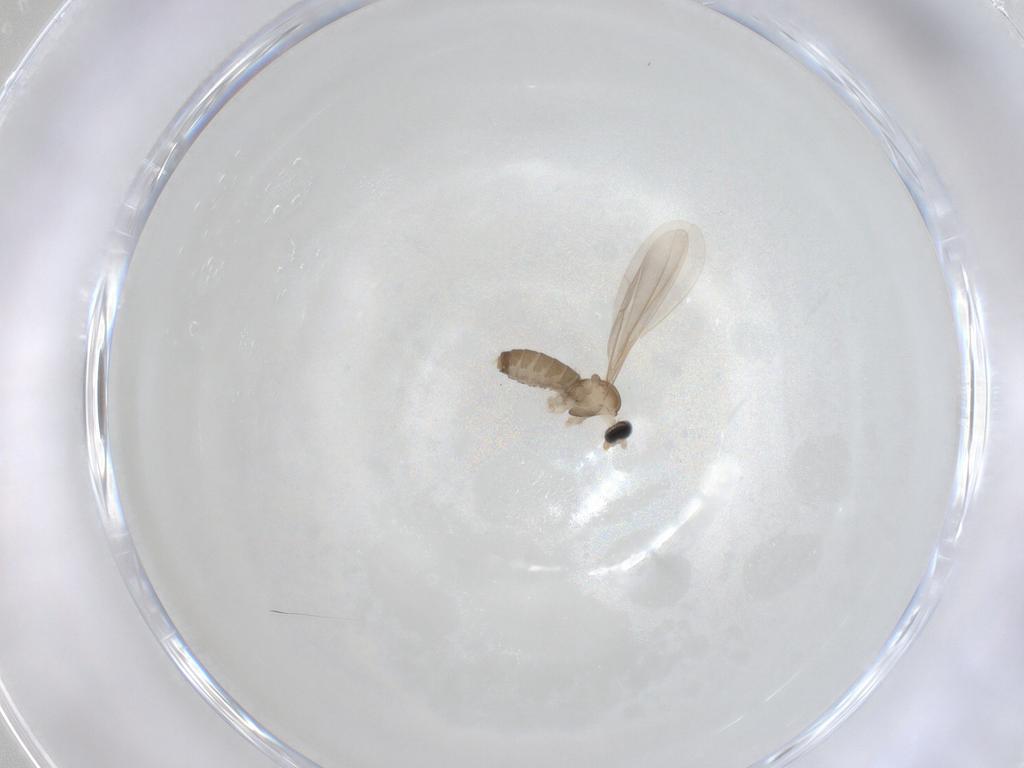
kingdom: Animalia
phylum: Arthropoda
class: Insecta
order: Diptera
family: Cecidomyiidae
